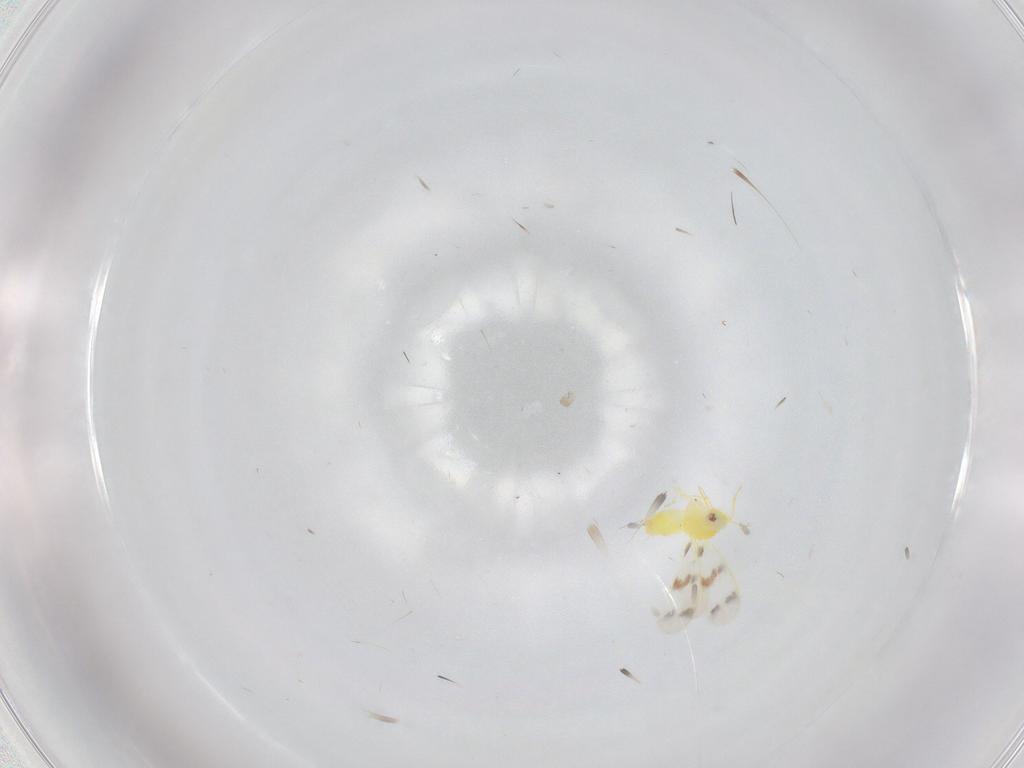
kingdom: Animalia
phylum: Arthropoda
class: Insecta
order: Hemiptera
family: Aleyrodidae
